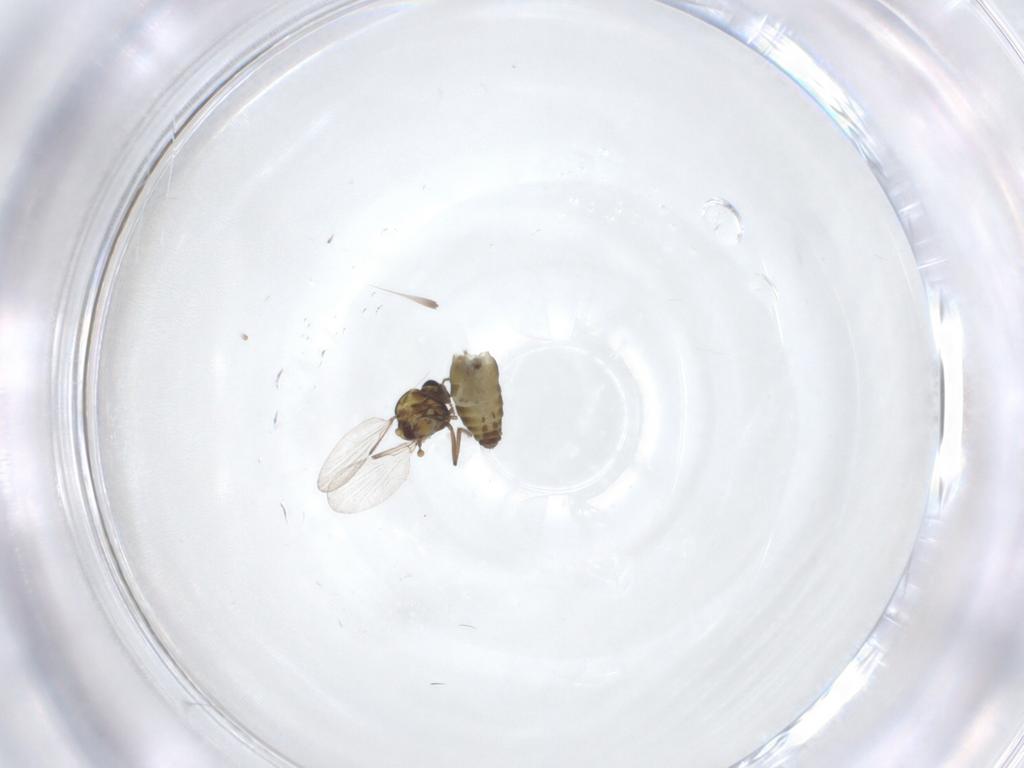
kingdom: Animalia
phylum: Arthropoda
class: Insecta
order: Diptera
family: Ceratopogonidae
